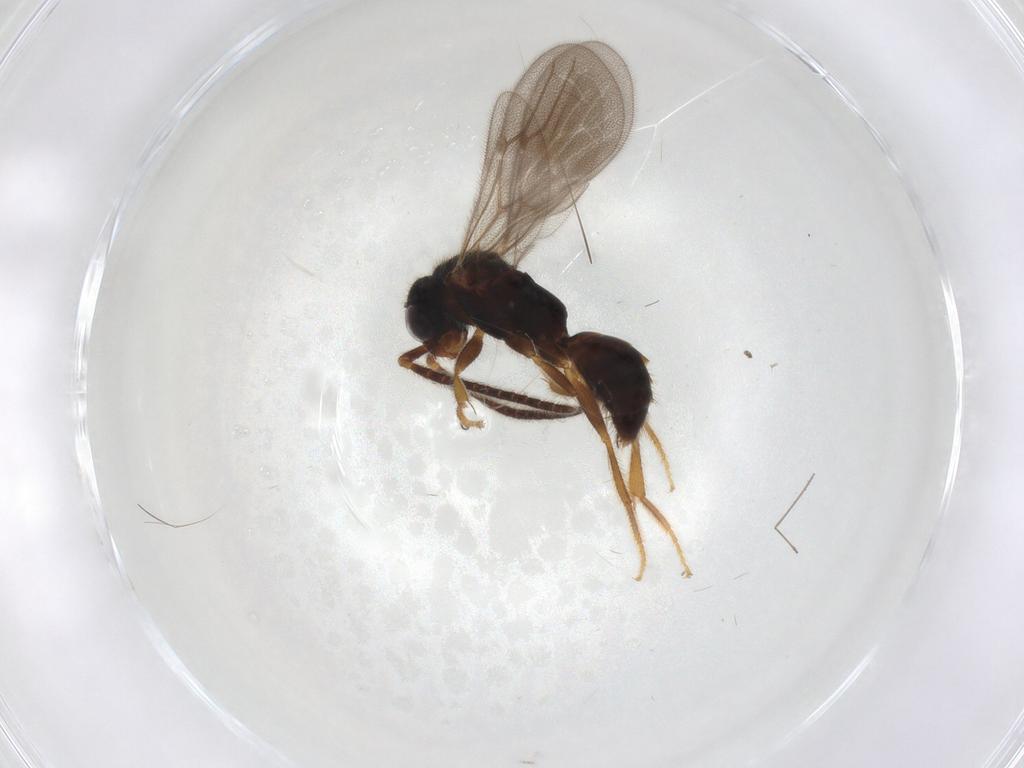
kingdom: Animalia
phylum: Arthropoda
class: Insecta
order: Hymenoptera
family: Bethylidae
